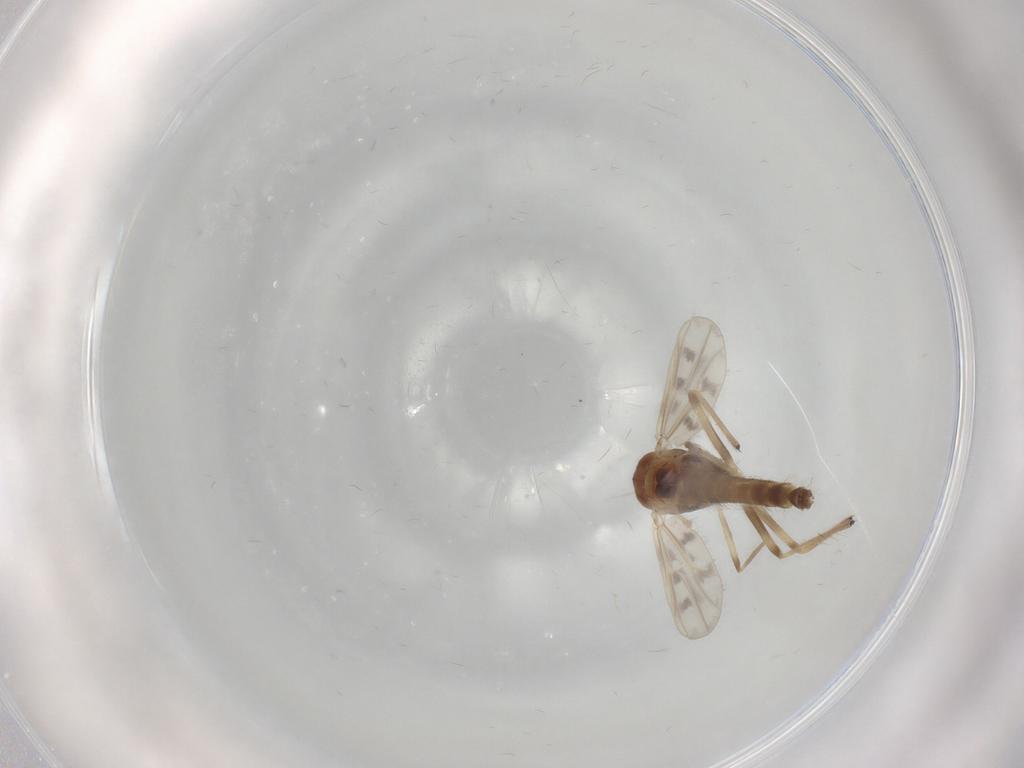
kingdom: Animalia
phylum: Arthropoda
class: Insecta
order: Diptera
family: Chironomidae
